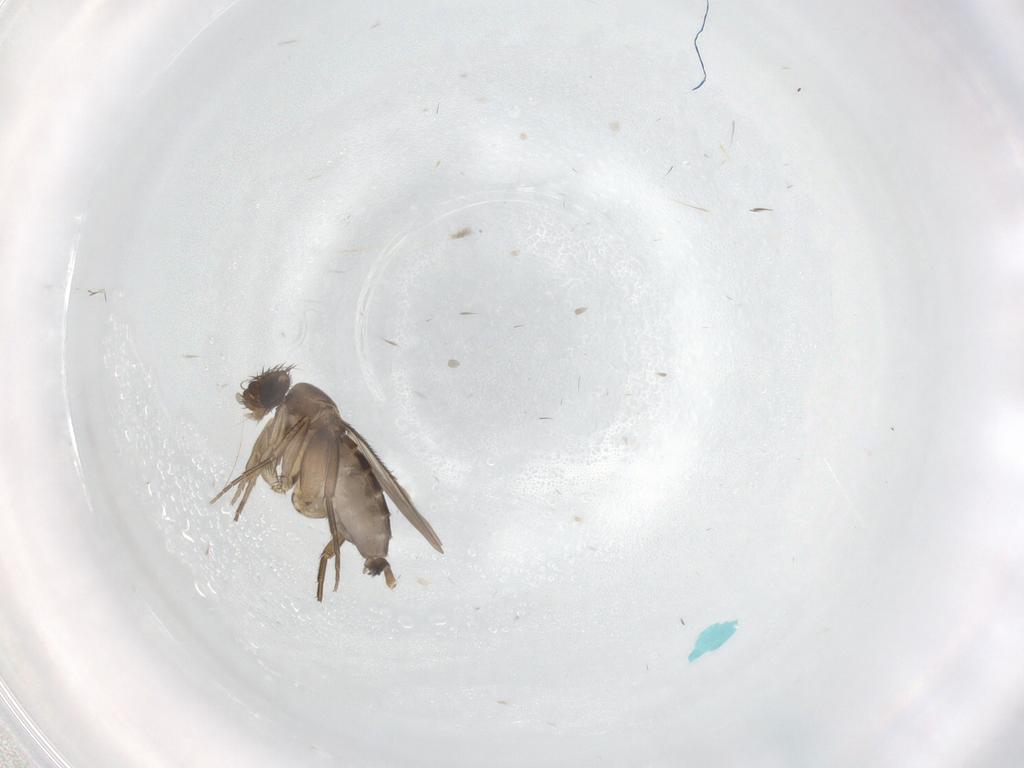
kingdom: Animalia
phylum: Arthropoda
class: Insecta
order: Diptera
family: Phoridae
